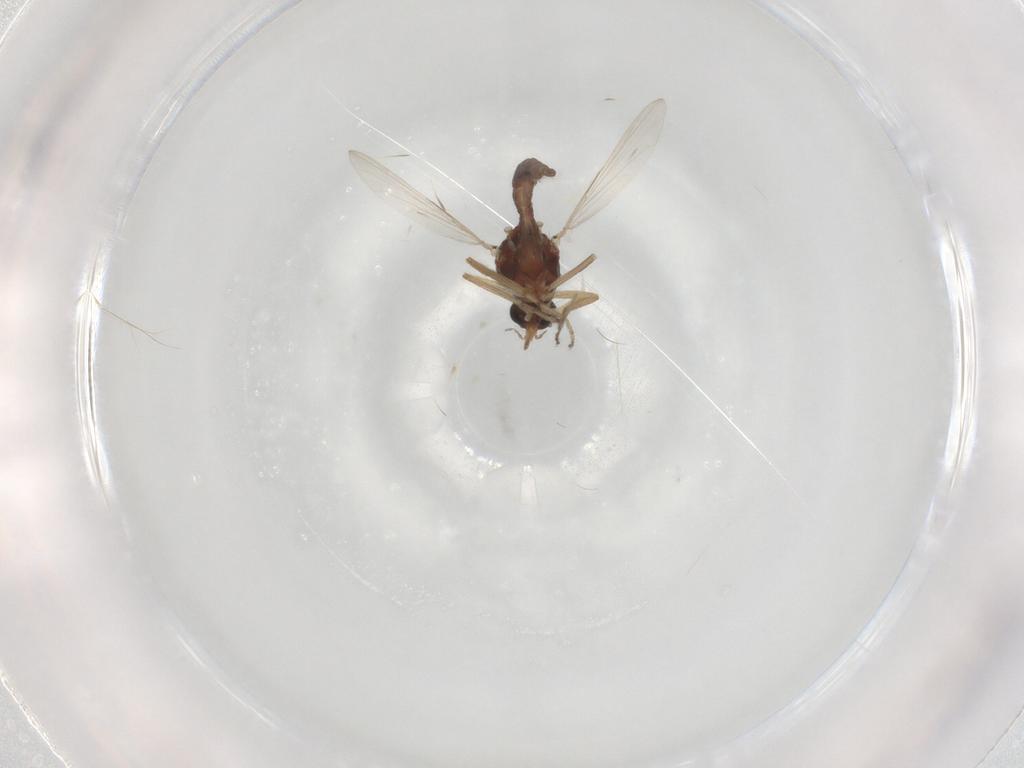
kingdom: Animalia
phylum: Arthropoda
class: Insecta
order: Diptera
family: Ceratopogonidae
